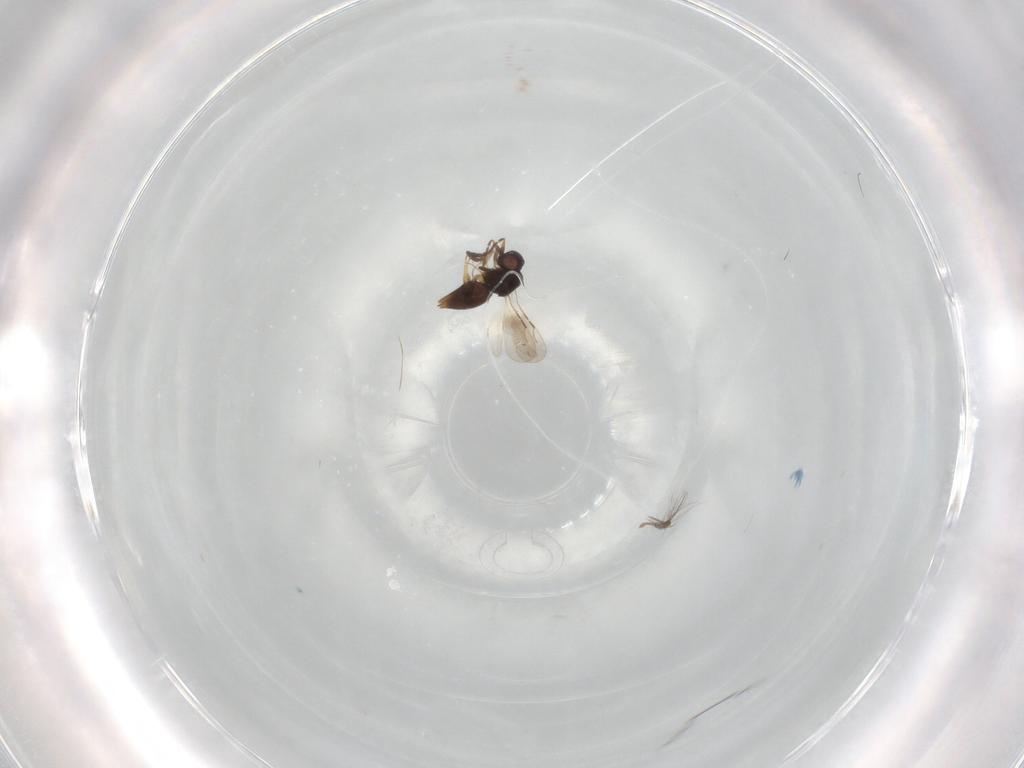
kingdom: Animalia
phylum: Arthropoda
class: Insecta
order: Hymenoptera
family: Ceraphronidae
